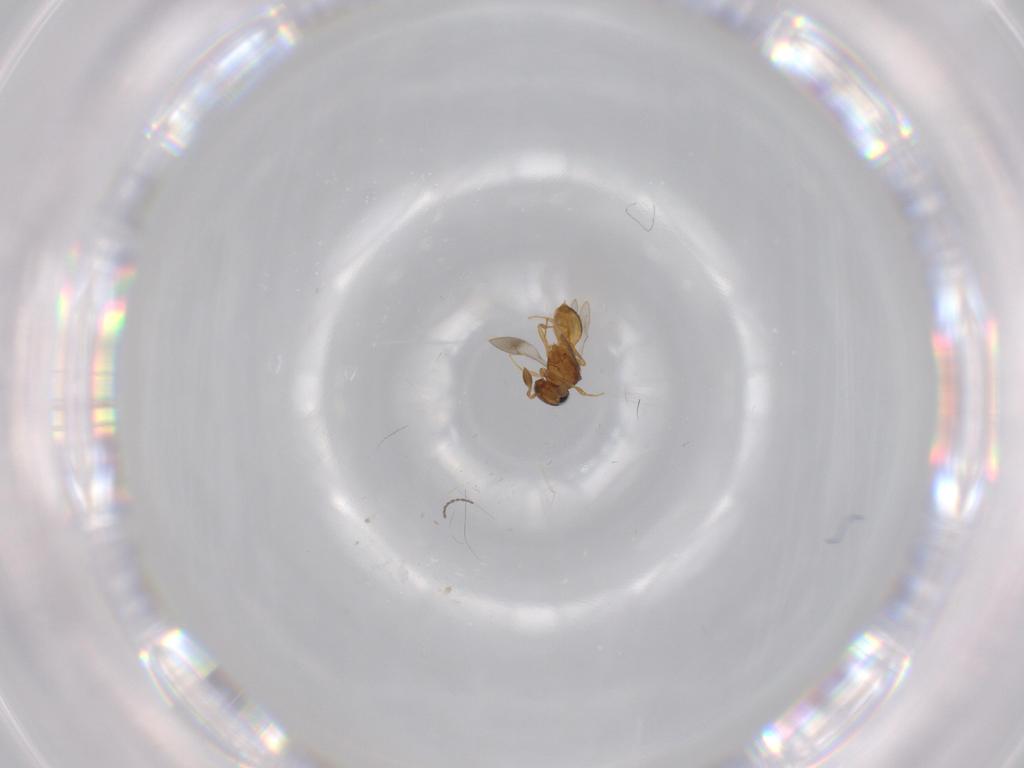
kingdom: Animalia
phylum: Arthropoda
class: Insecta
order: Hymenoptera
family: Scelionidae
